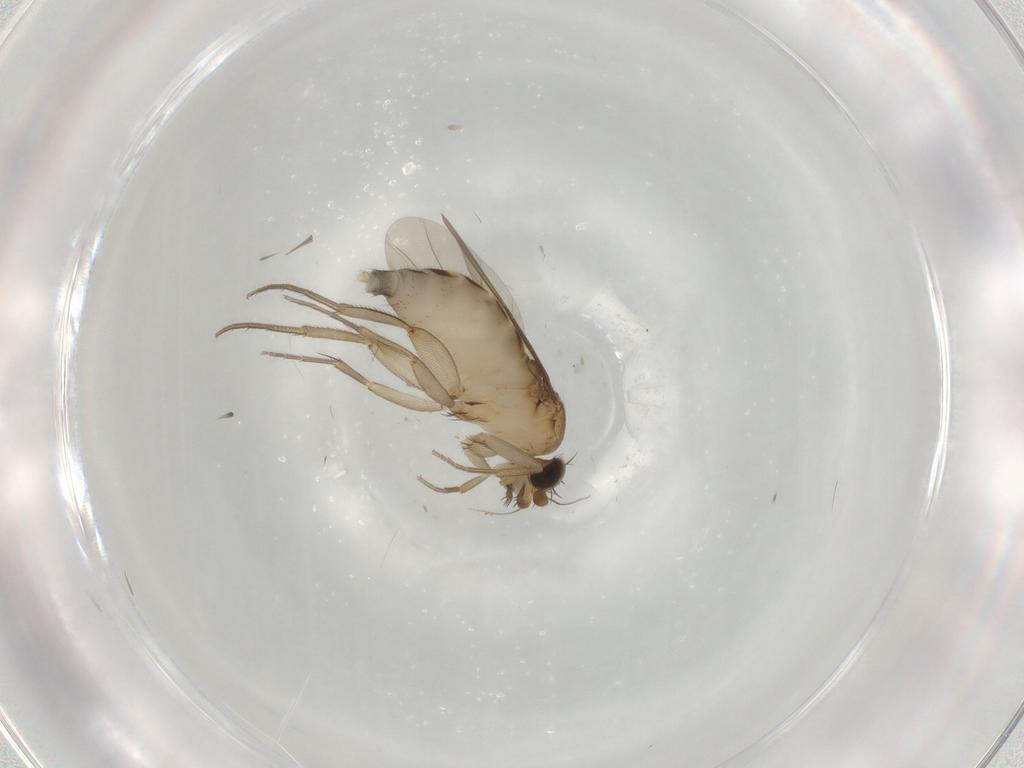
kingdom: Animalia
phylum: Arthropoda
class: Insecta
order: Diptera
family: Phoridae
